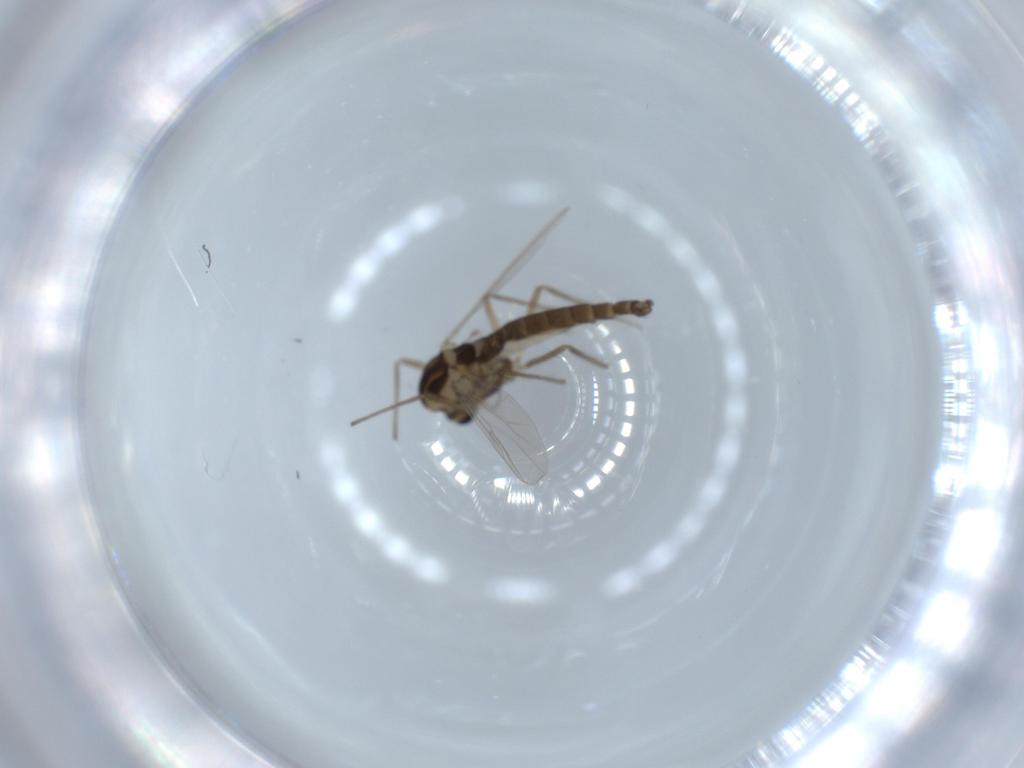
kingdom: Animalia
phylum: Arthropoda
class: Insecta
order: Diptera
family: Chironomidae
